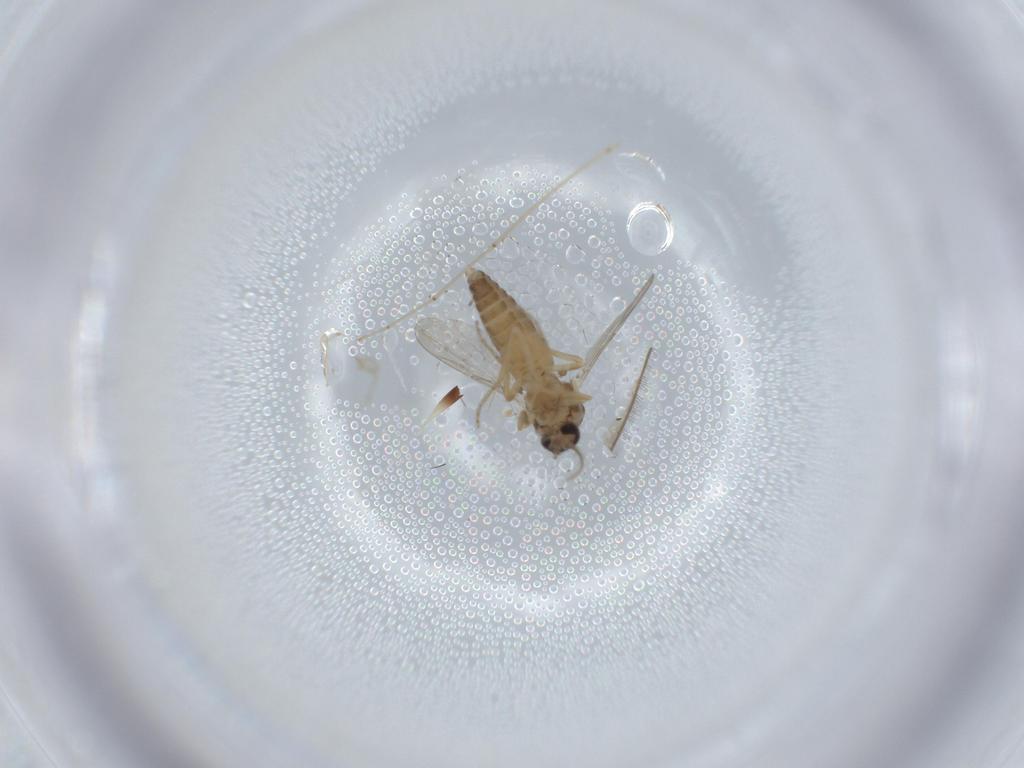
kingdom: Animalia
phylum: Arthropoda
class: Insecta
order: Diptera
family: Ceratopogonidae
